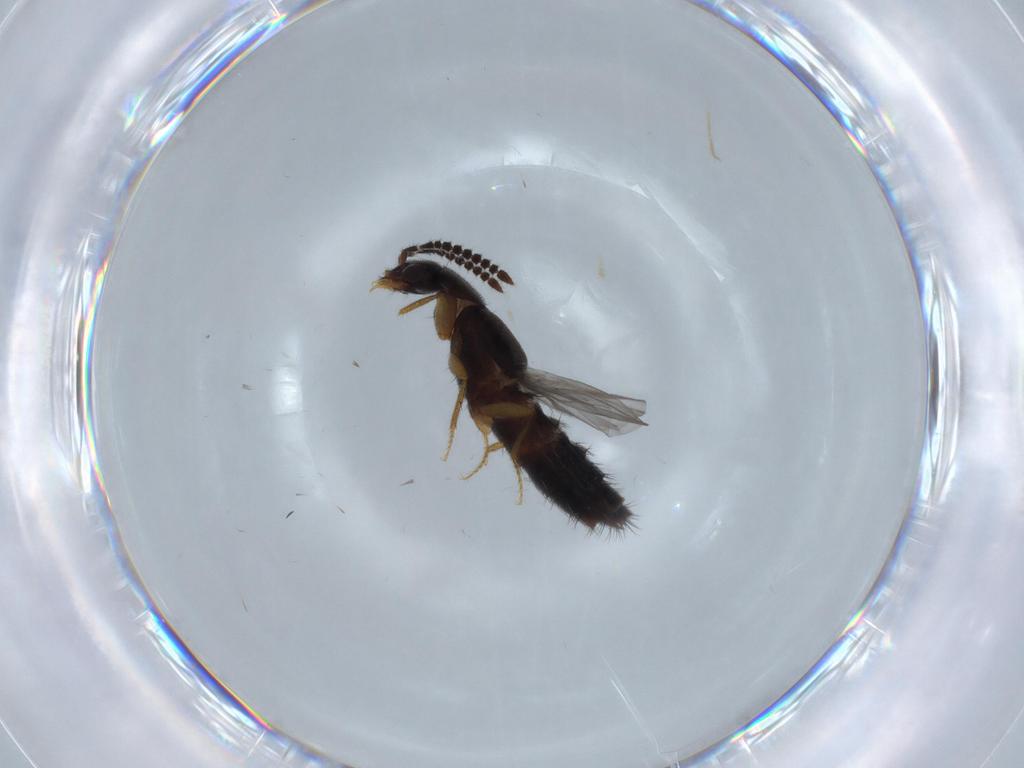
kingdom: Animalia
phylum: Arthropoda
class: Insecta
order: Coleoptera
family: Staphylinidae
